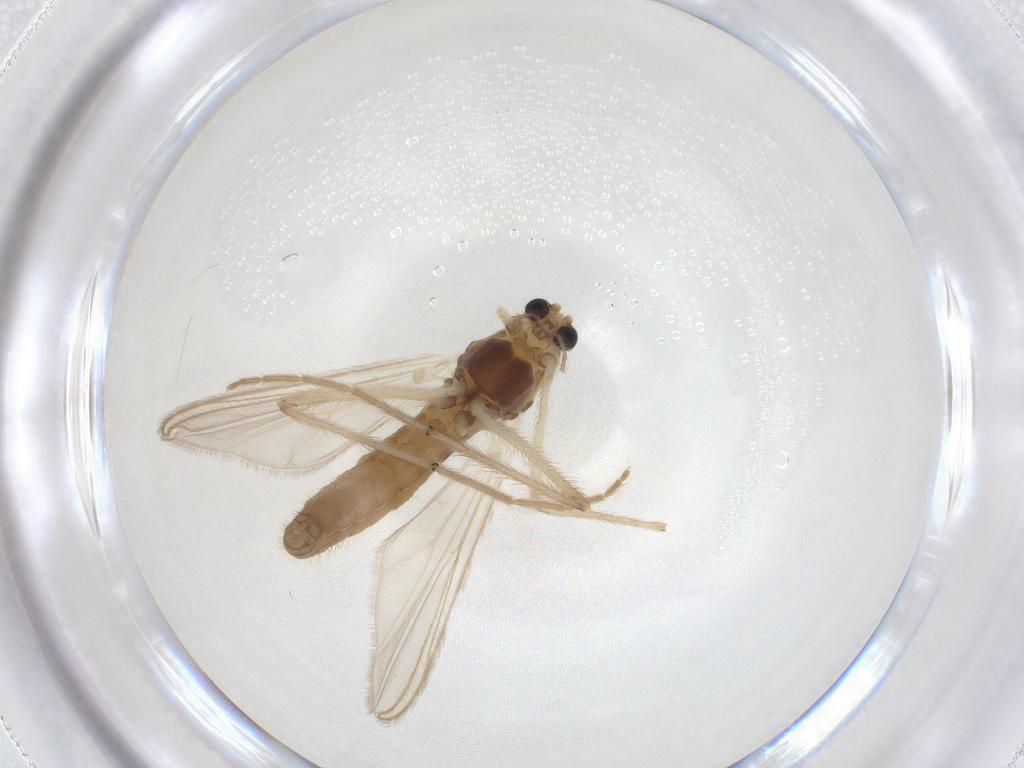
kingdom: Animalia
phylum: Arthropoda
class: Insecta
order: Diptera
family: Chironomidae
